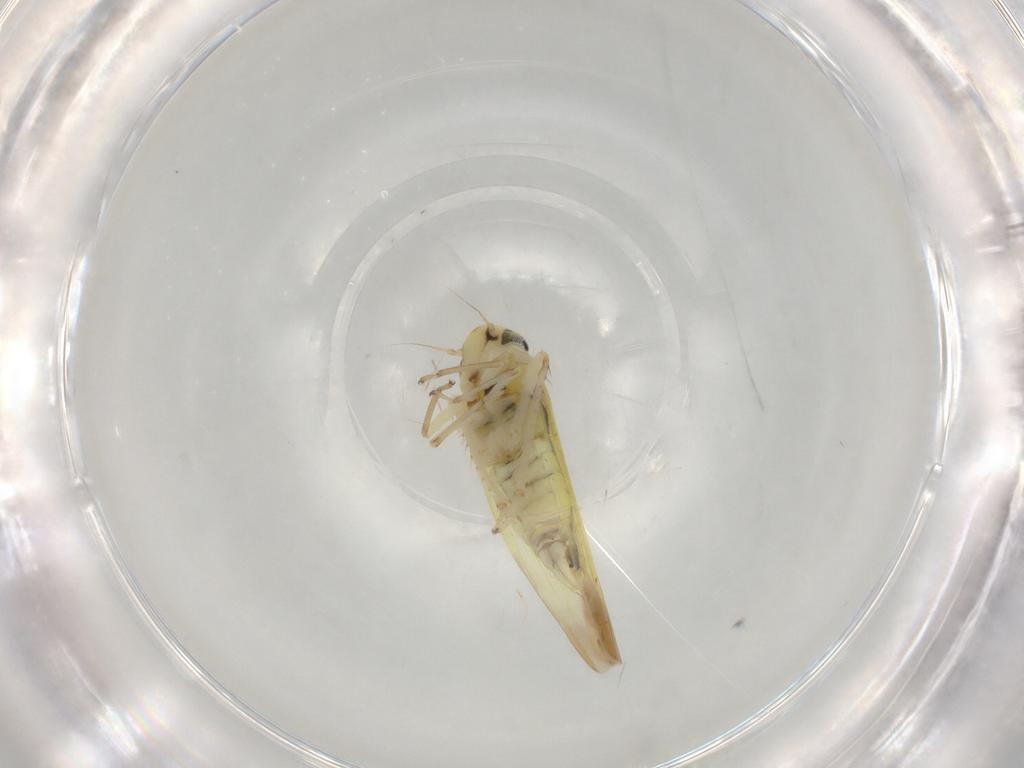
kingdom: Animalia
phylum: Arthropoda
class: Insecta
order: Hemiptera
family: Cicadellidae
